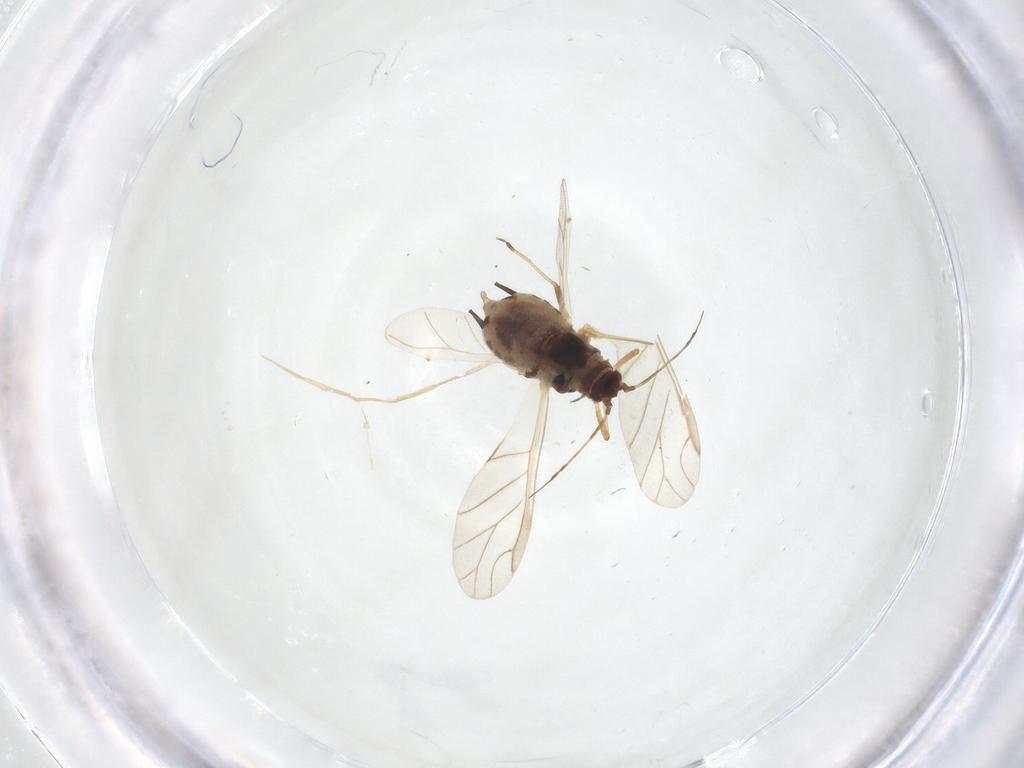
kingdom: Animalia
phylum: Arthropoda
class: Insecta
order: Hemiptera
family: Aphididae
